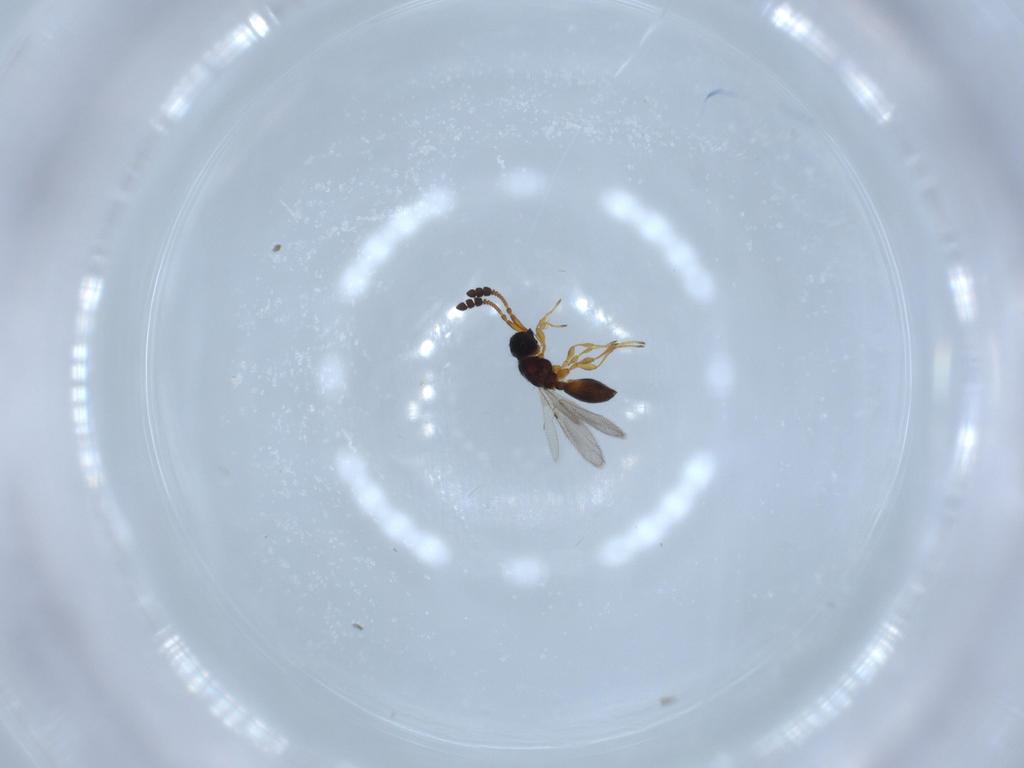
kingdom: Animalia
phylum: Arthropoda
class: Insecta
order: Hymenoptera
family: Diapriidae
